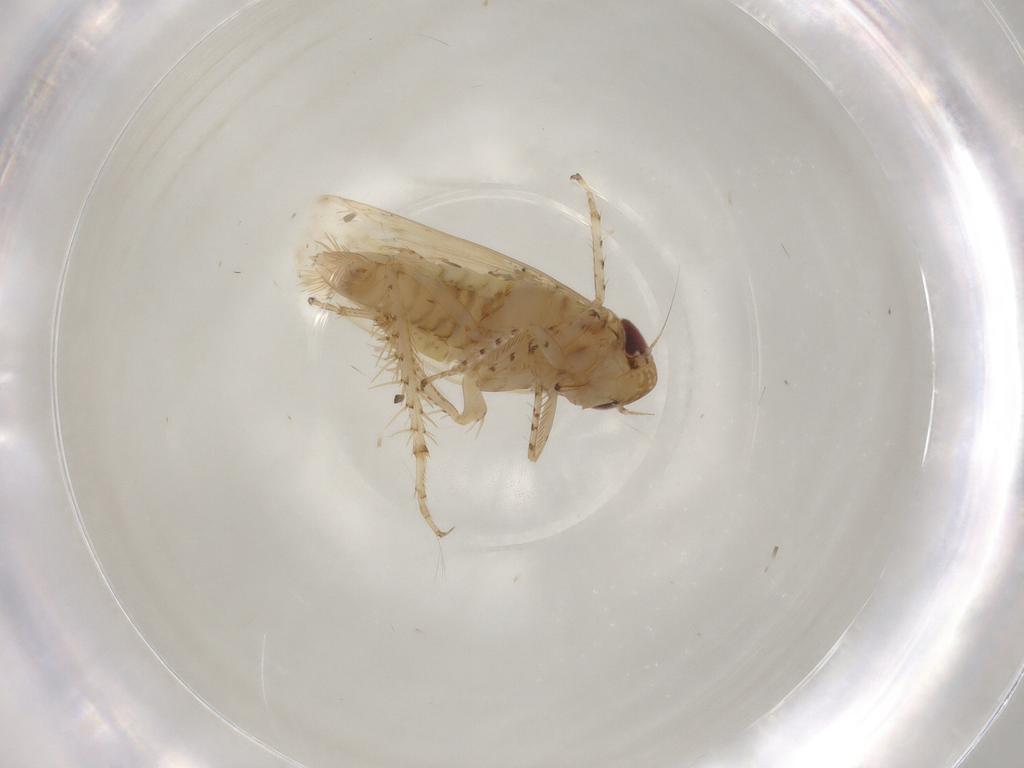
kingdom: Animalia
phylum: Arthropoda
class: Insecta
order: Hemiptera
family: Cicadellidae
